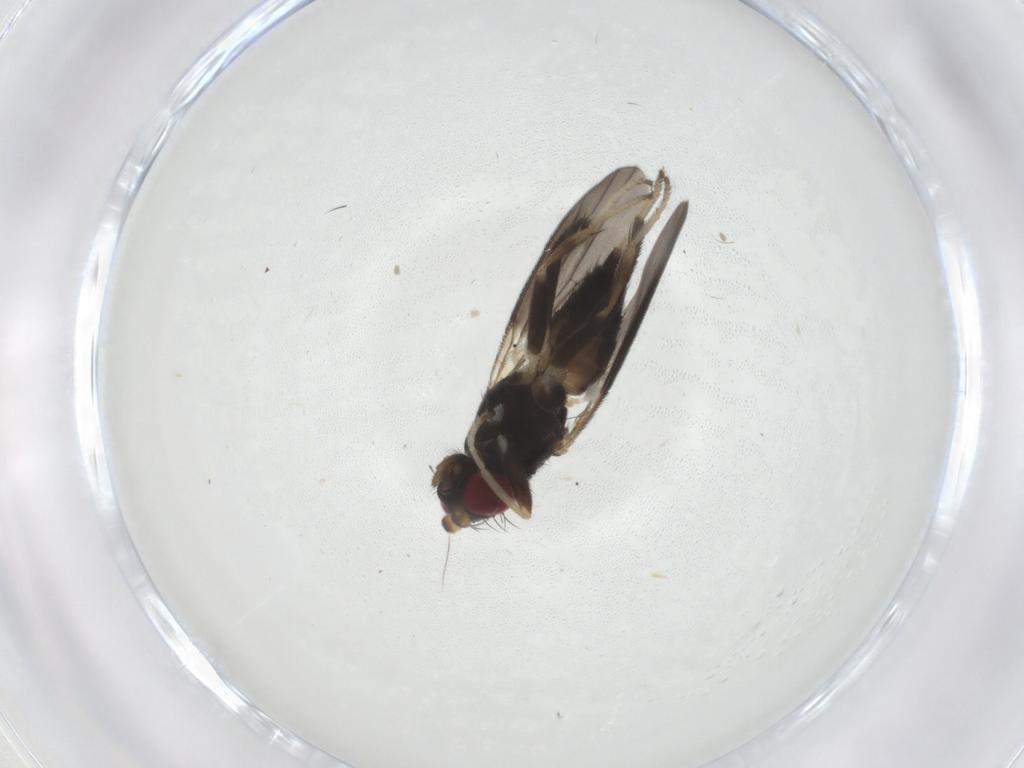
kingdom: Animalia
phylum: Arthropoda
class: Insecta
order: Diptera
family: Clusiidae
